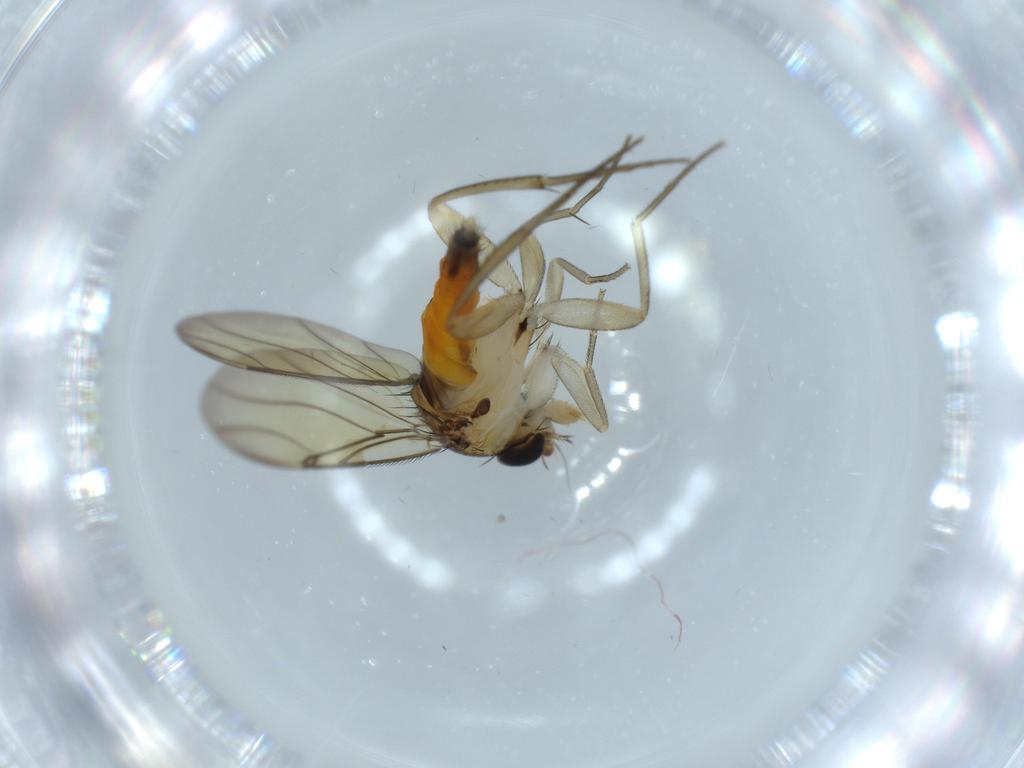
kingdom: Animalia
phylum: Arthropoda
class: Insecta
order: Diptera
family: Phoridae
